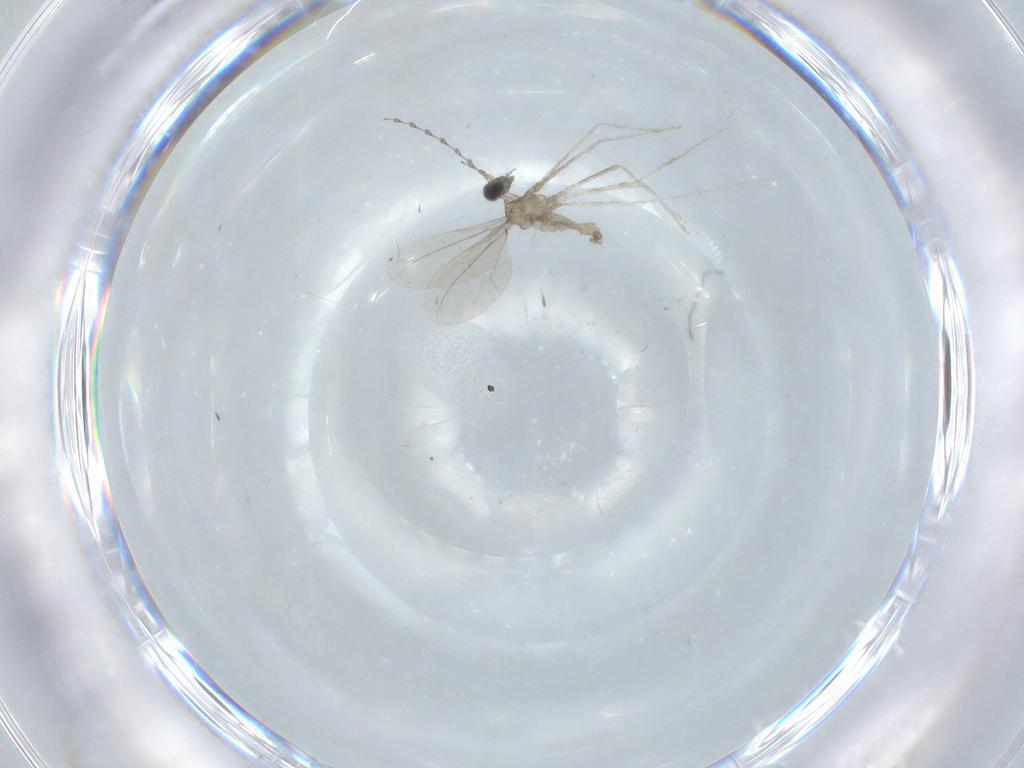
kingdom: Animalia
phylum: Arthropoda
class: Insecta
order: Diptera
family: Cecidomyiidae
